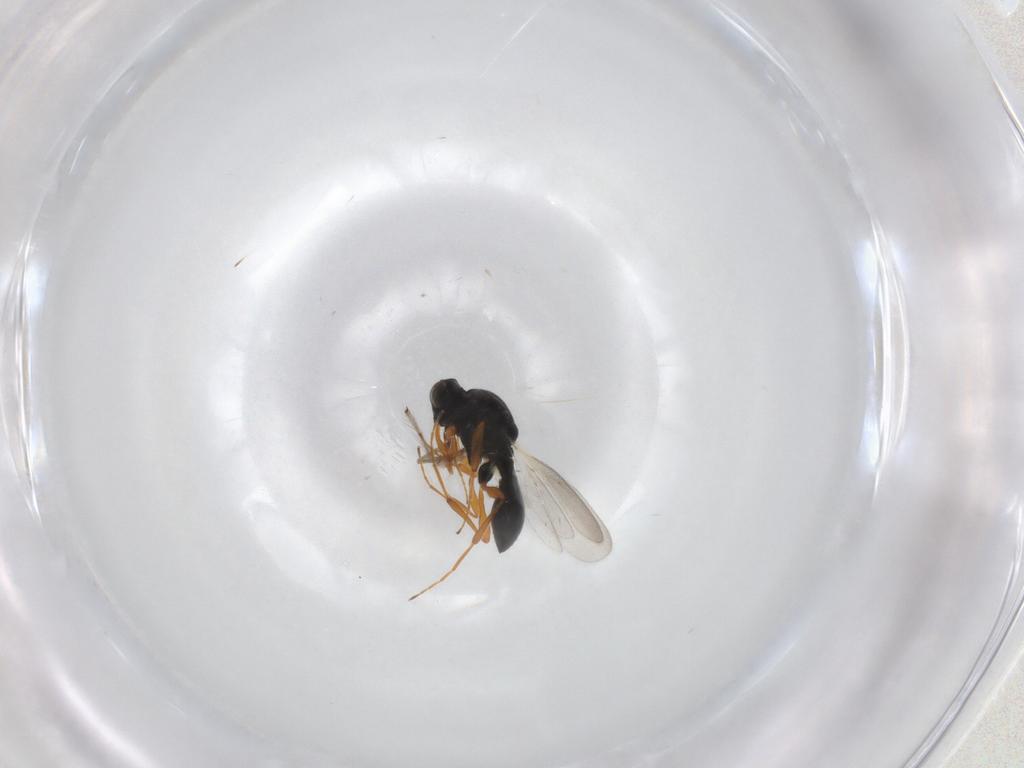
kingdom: Animalia
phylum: Arthropoda
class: Insecta
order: Hymenoptera
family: Platygastridae
